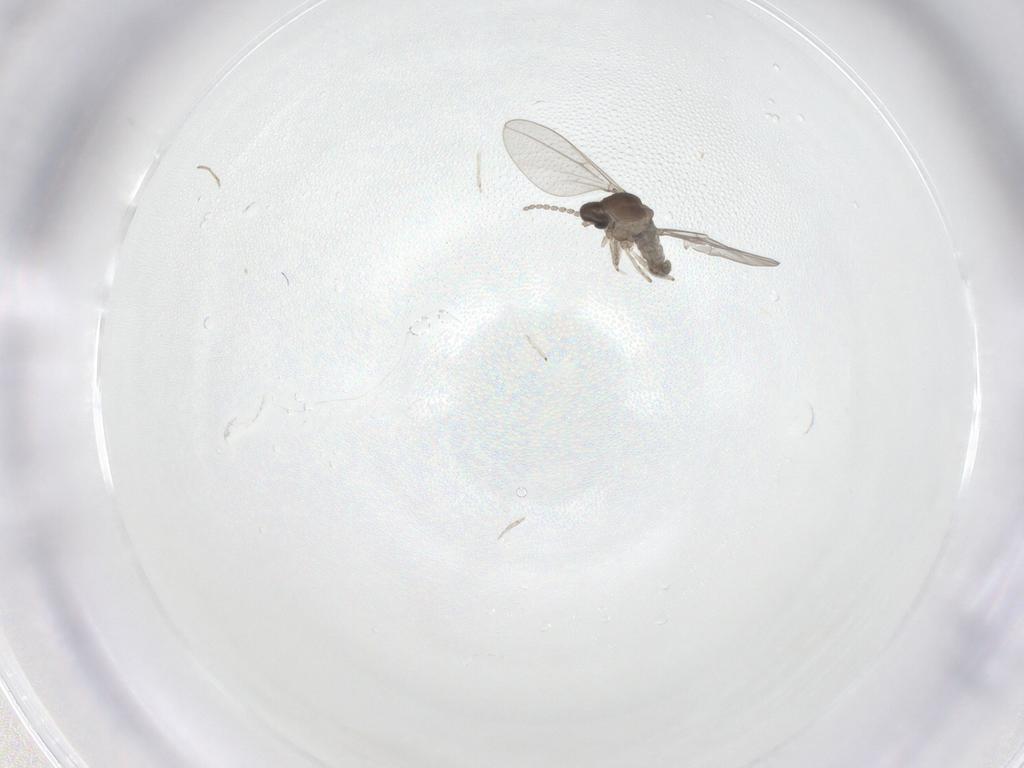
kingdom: Animalia
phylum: Arthropoda
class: Insecta
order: Diptera
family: Cecidomyiidae
